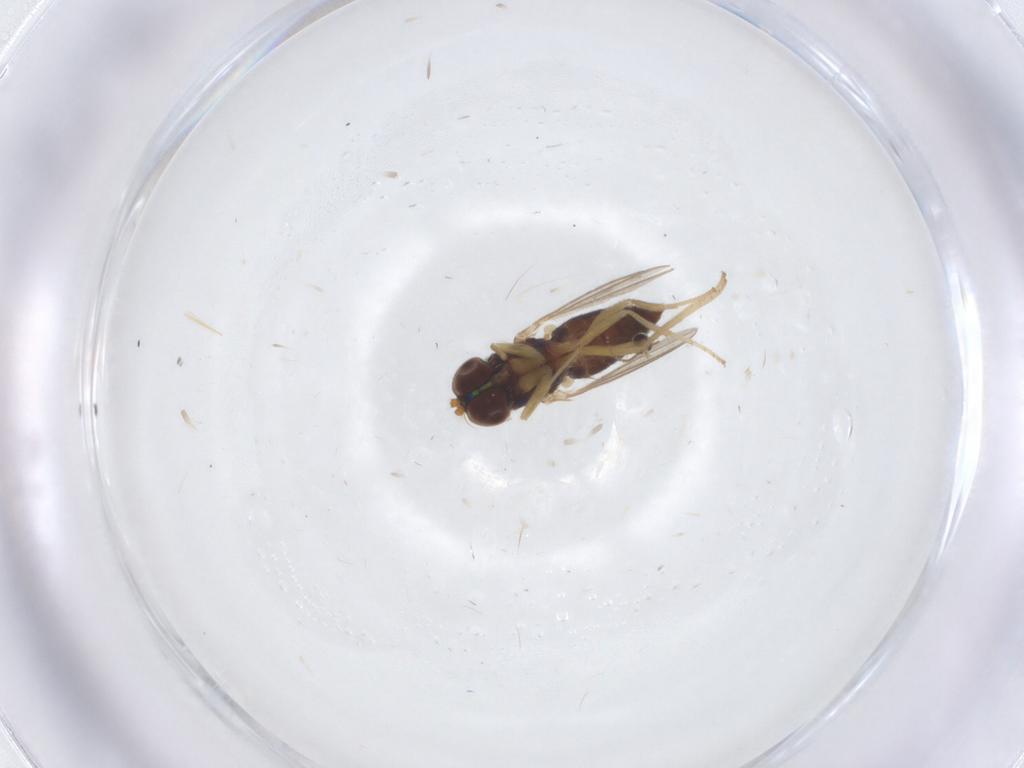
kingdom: Animalia
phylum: Arthropoda
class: Insecta
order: Diptera
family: Dolichopodidae
